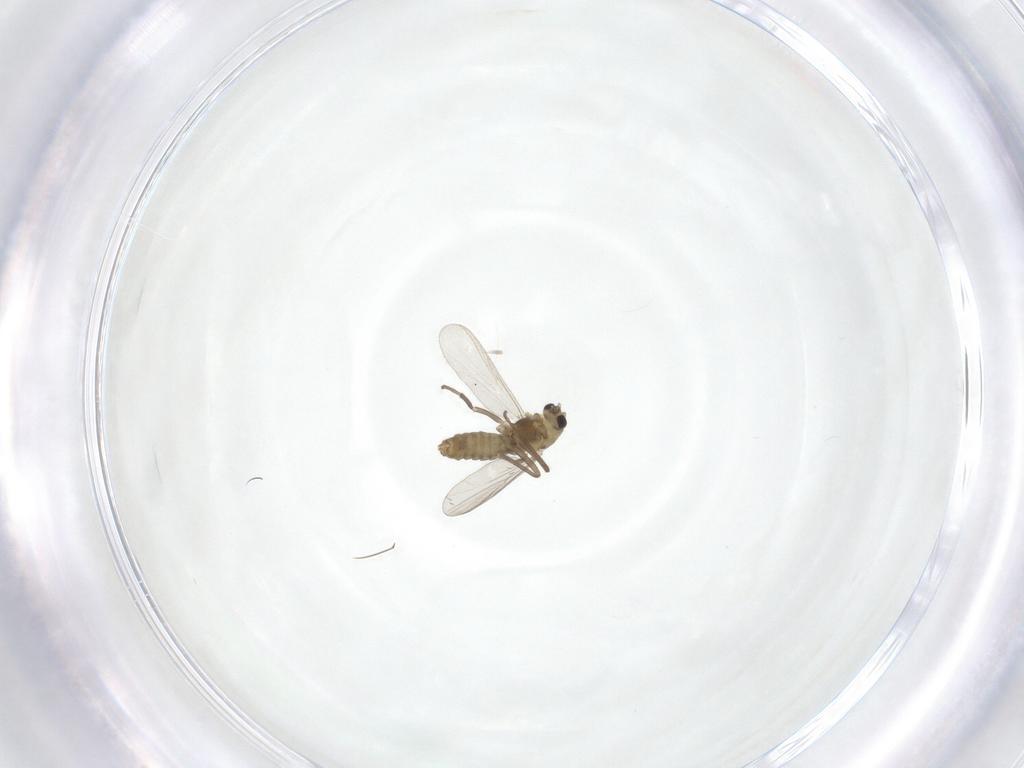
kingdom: Animalia
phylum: Arthropoda
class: Insecta
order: Diptera
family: Chironomidae
